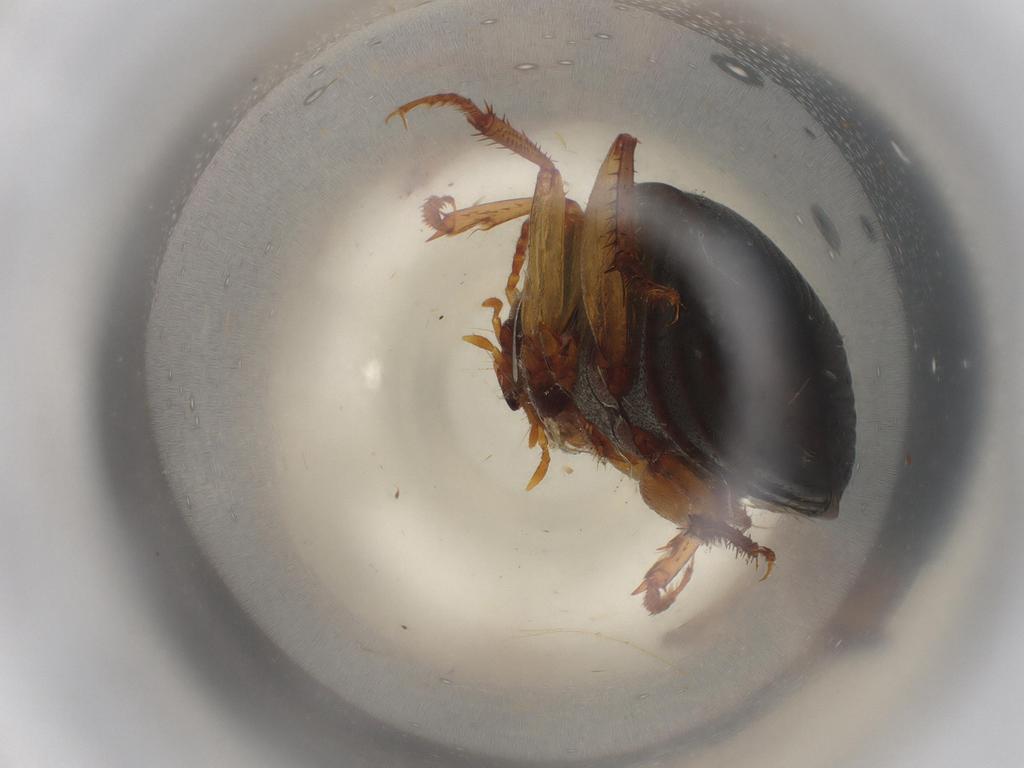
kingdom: Animalia
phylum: Arthropoda
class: Insecta
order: Coleoptera
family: Carabidae
